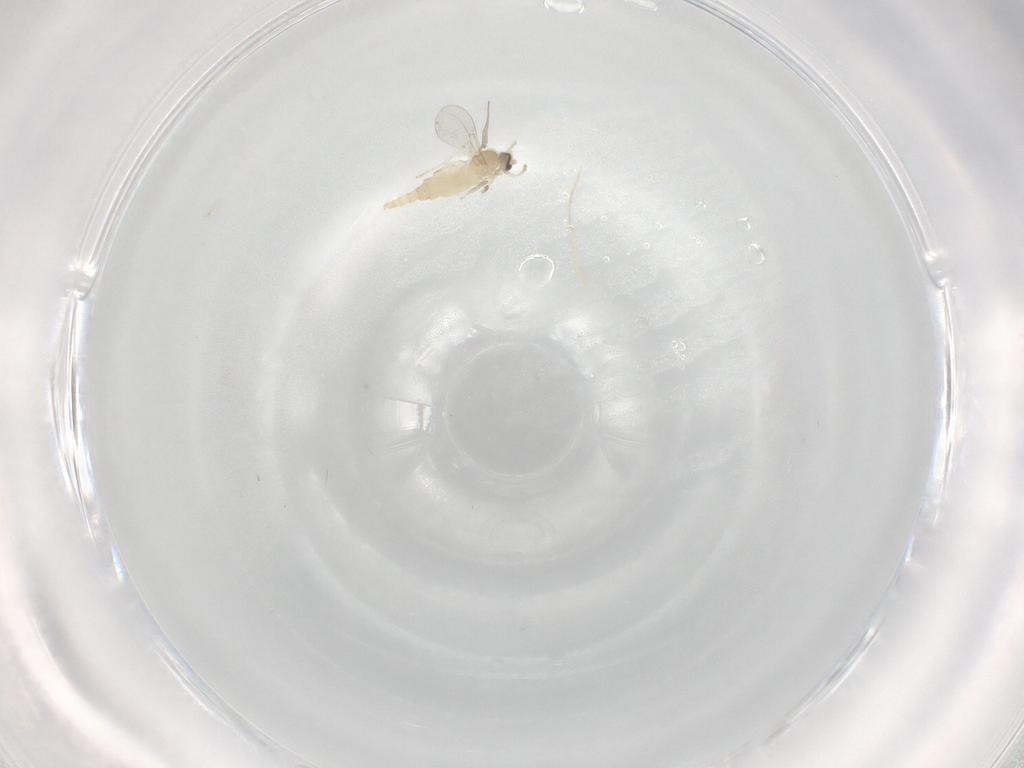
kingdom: Animalia
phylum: Arthropoda
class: Insecta
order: Diptera
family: Cecidomyiidae
